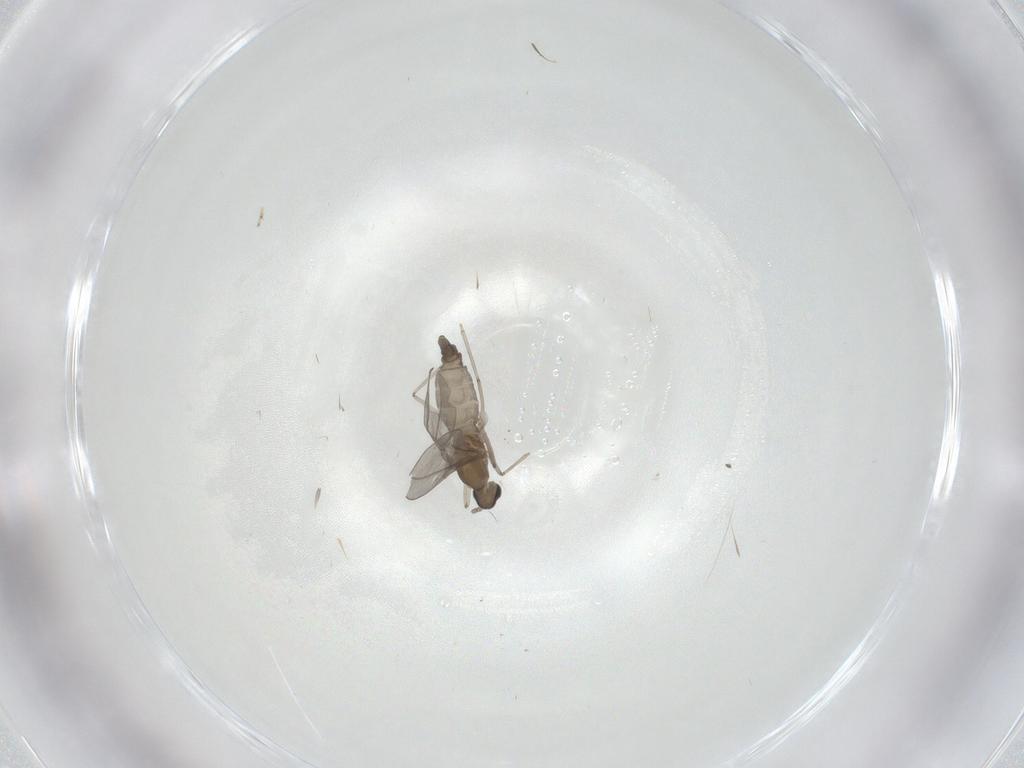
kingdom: Animalia
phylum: Arthropoda
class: Insecta
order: Diptera
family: Cecidomyiidae
